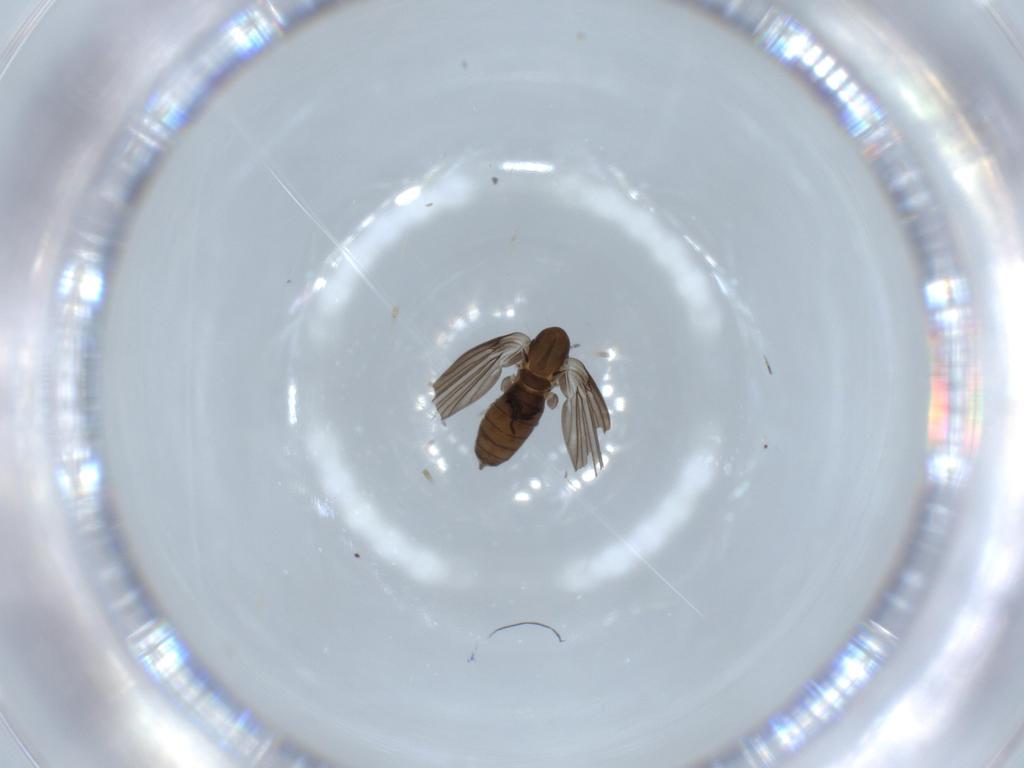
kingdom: Animalia
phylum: Arthropoda
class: Insecta
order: Diptera
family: Psychodidae
